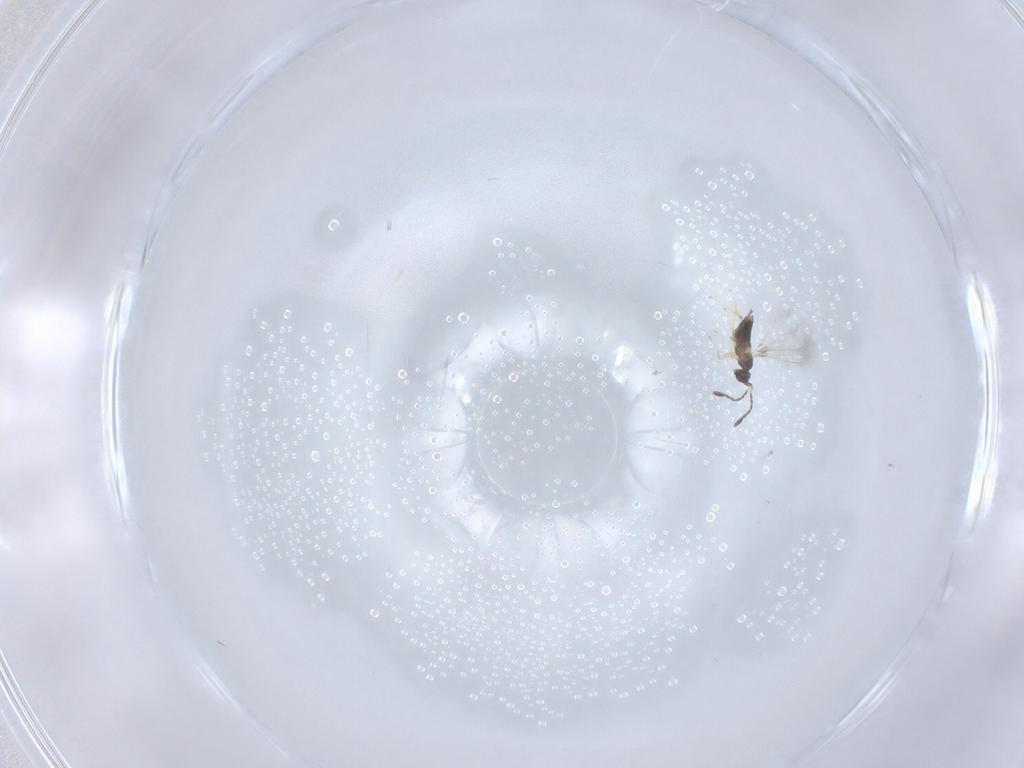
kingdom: Animalia
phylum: Arthropoda
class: Insecta
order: Hymenoptera
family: Mymaridae
